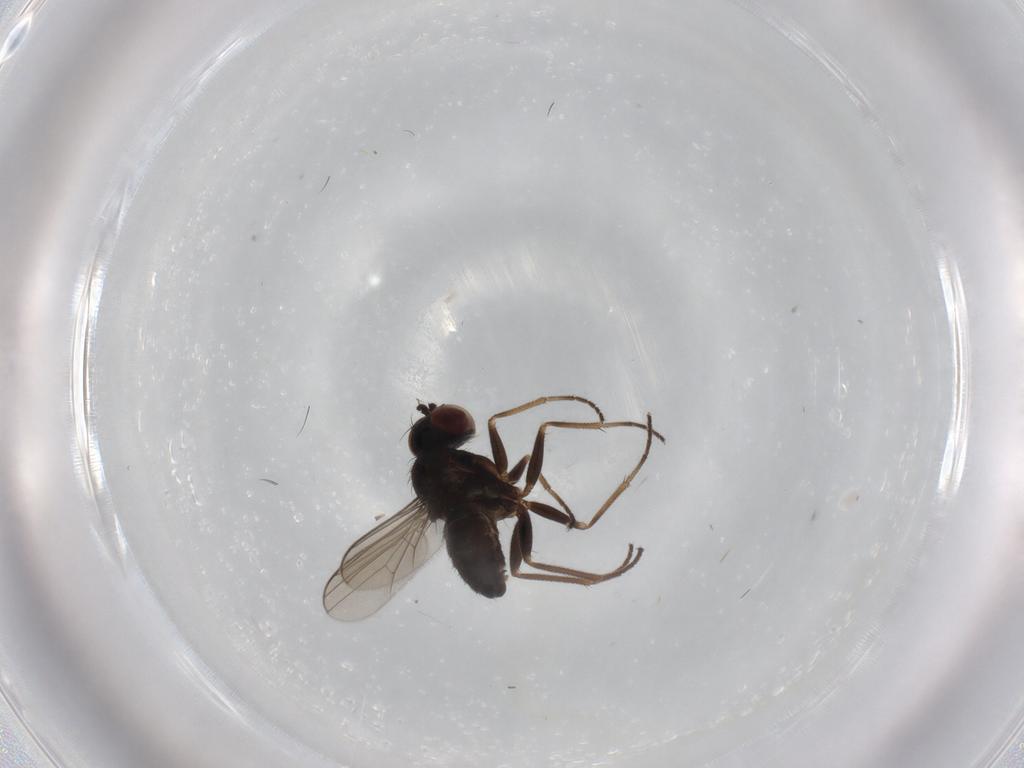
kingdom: Animalia
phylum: Arthropoda
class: Insecta
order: Diptera
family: Dolichopodidae
